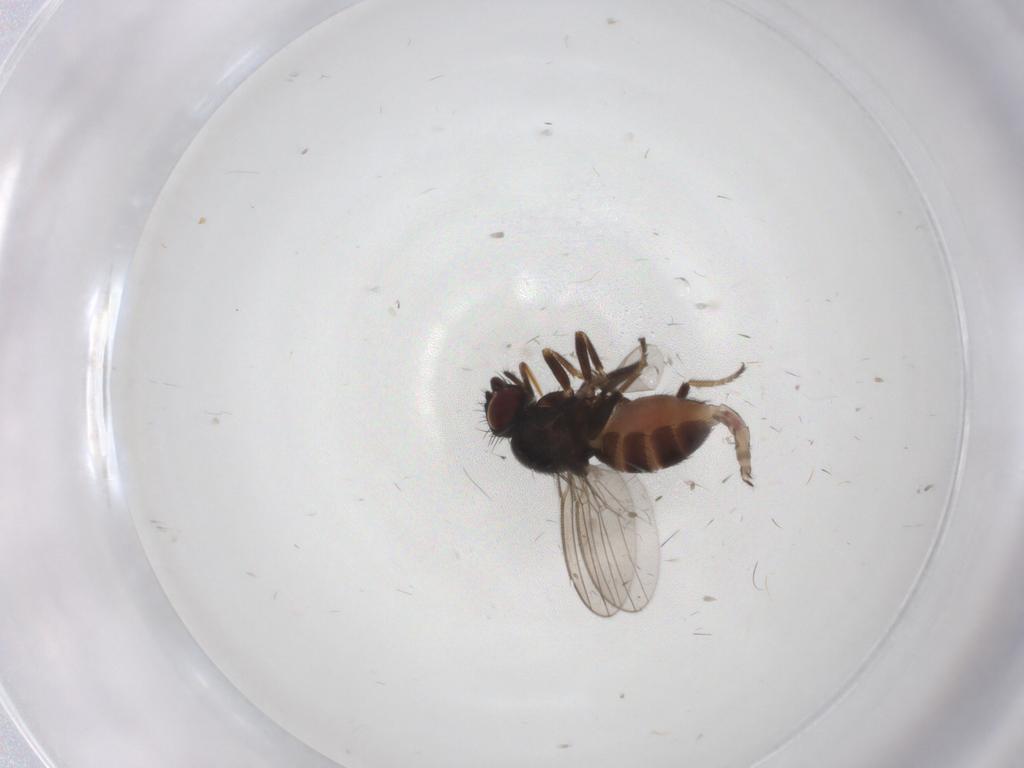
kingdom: Animalia
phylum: Arthropoda
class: Insecta
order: Diptera
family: Milichiidae
